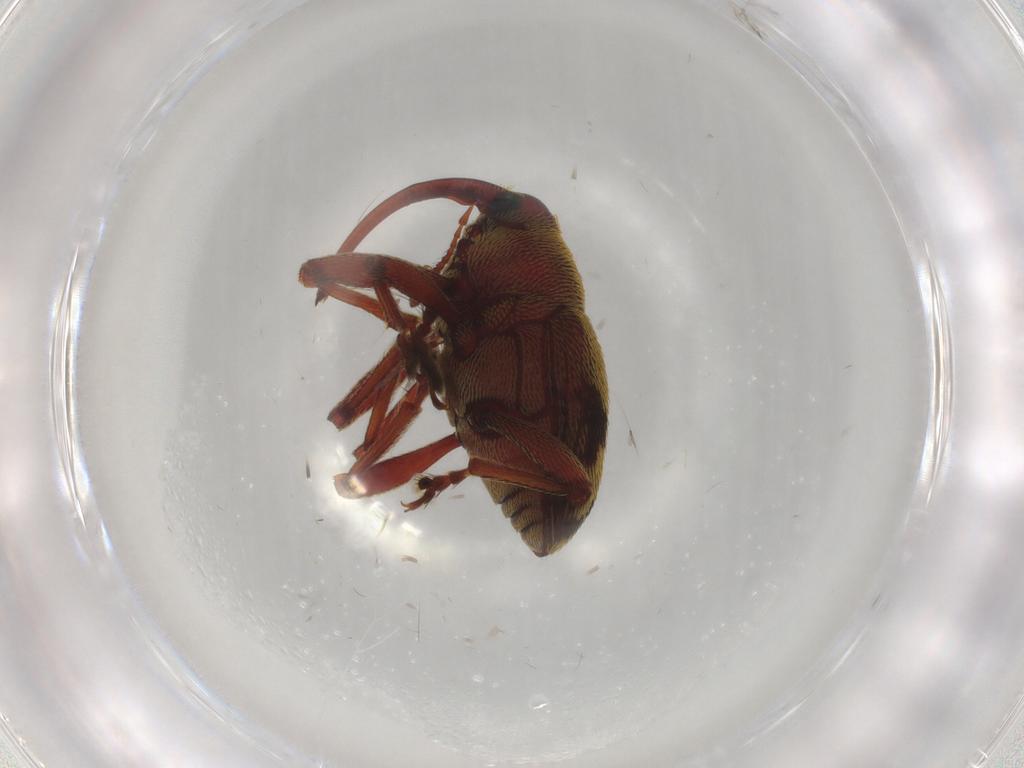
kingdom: Animalia
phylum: Arthropoda
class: Insecta
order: Coleoptera
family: Curculionidae
